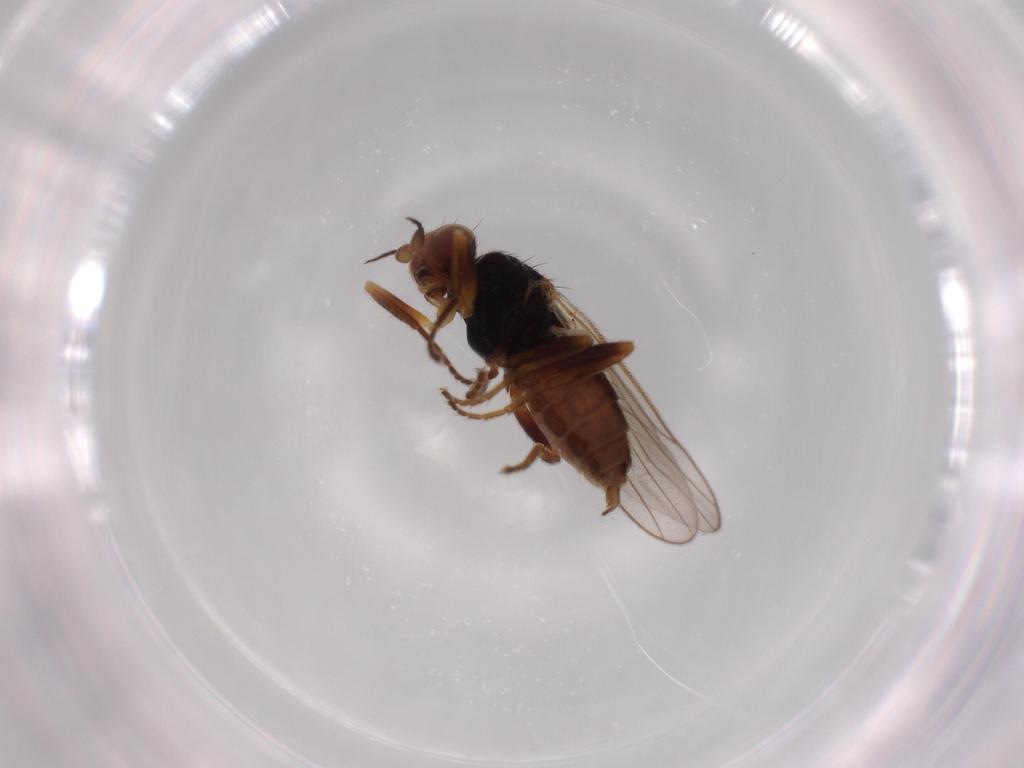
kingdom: Animalia
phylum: Arthropoda
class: Insecta
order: Diptera
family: Chloropidae
